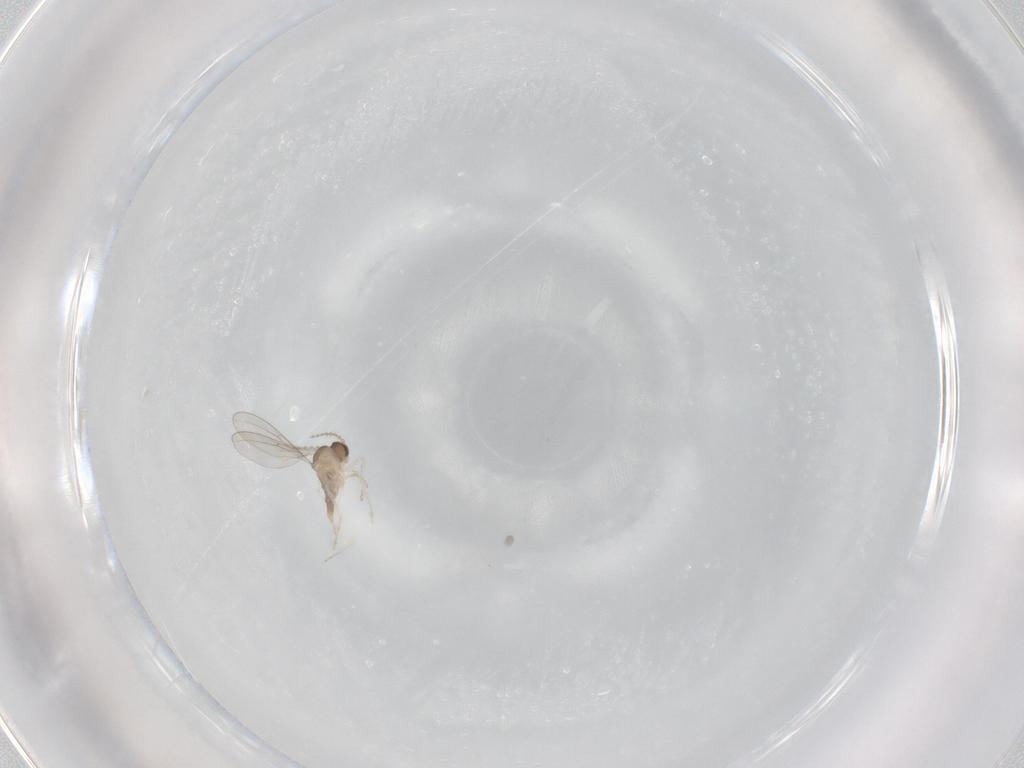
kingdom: Animalia
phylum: Arthropoda
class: Insecta
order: Diptera
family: Cecidomyiidae
